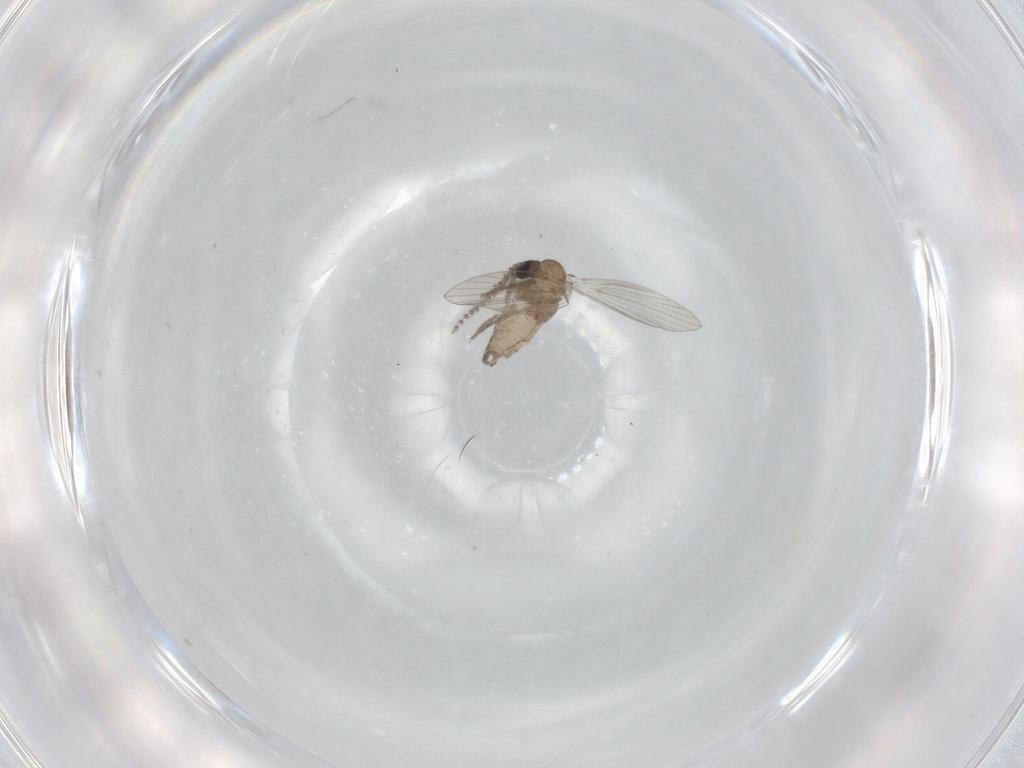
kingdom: Animalia
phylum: Arthropoda
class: Insecta
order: Diptera
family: Psychodidae
